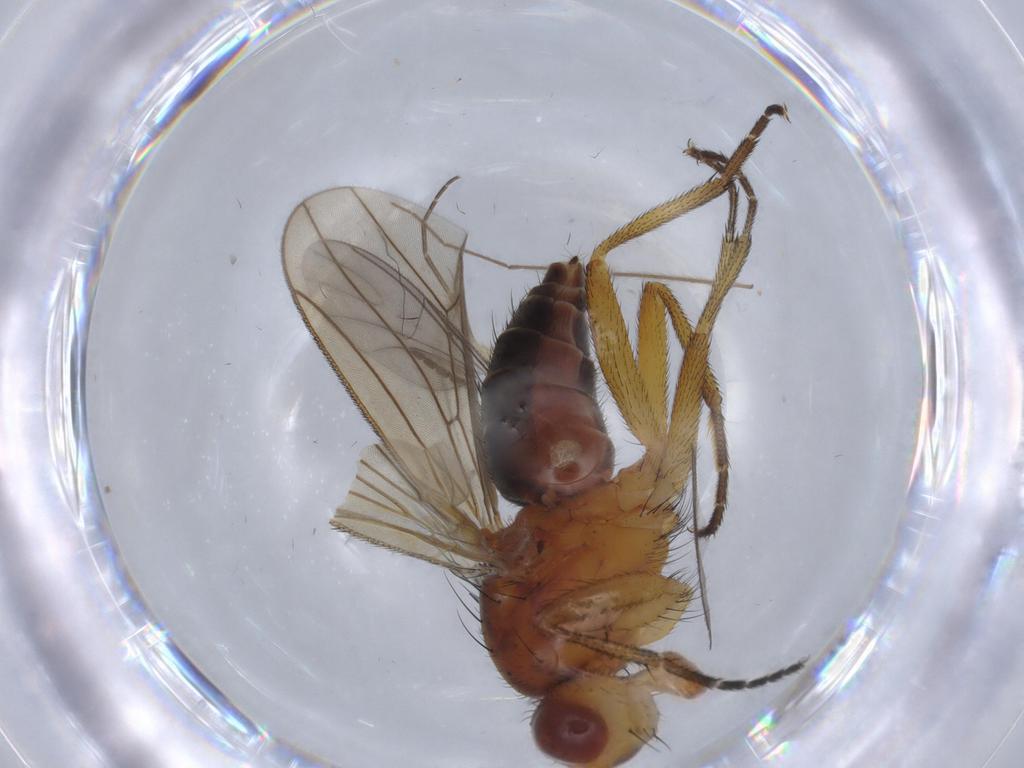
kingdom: Animalia
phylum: Arthropoda
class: Insecta
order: Diptera
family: Phoridae
